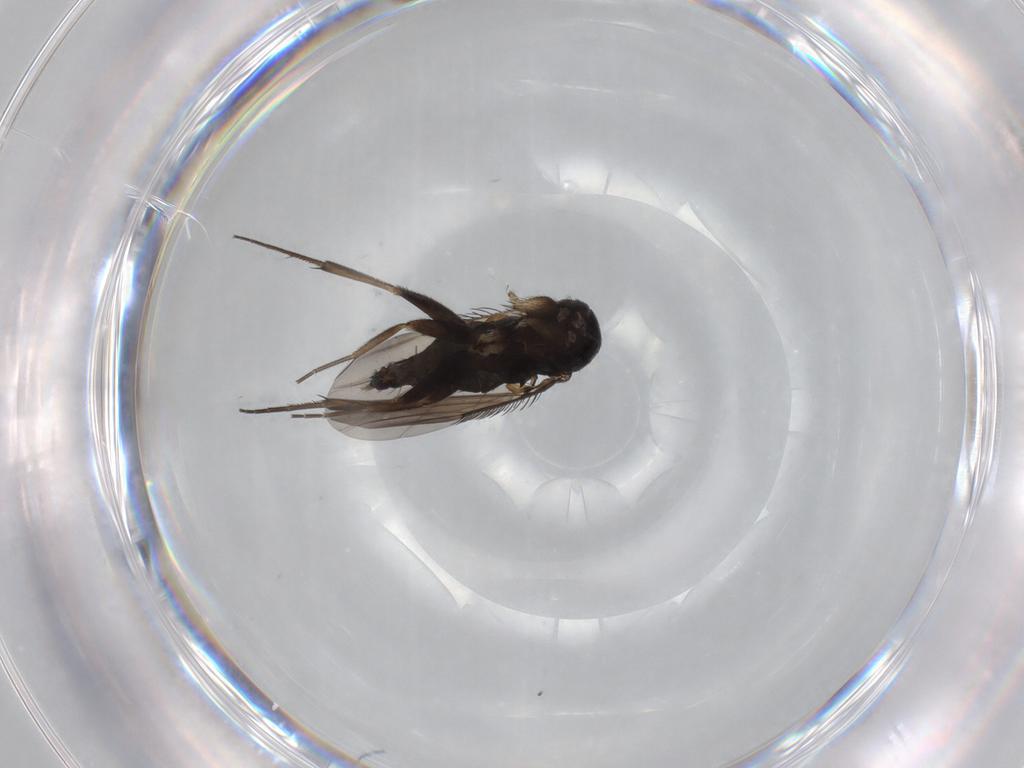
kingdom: Animalia
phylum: Arthropoda
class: Insecta
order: Diptera
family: Phoridae
